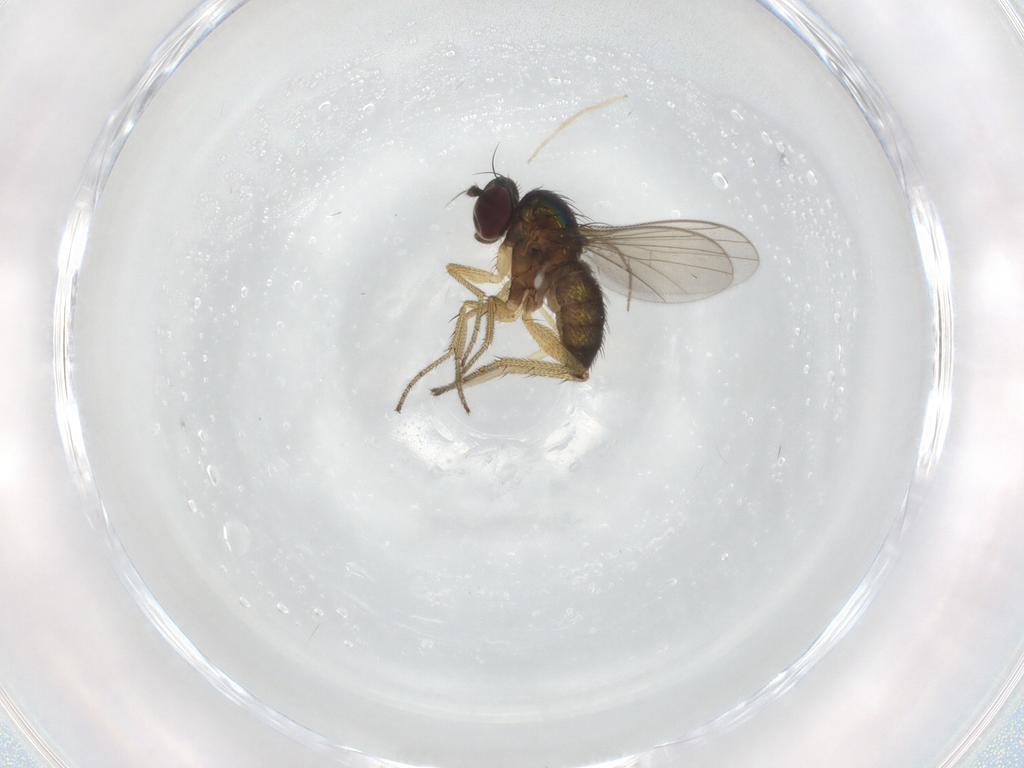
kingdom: Animalia
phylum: Arthropoda
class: Insecta
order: Diptera
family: Dolichopodidae
